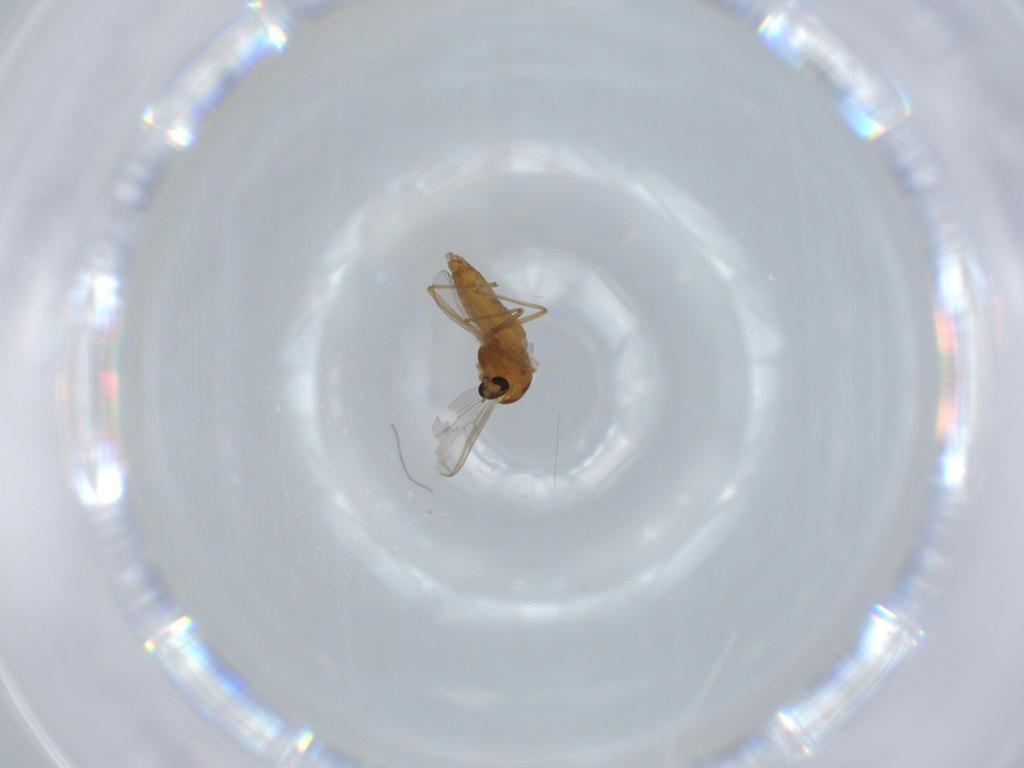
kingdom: Animalia
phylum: Arthropoda
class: Insecta
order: Diptera
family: Chironomidae
